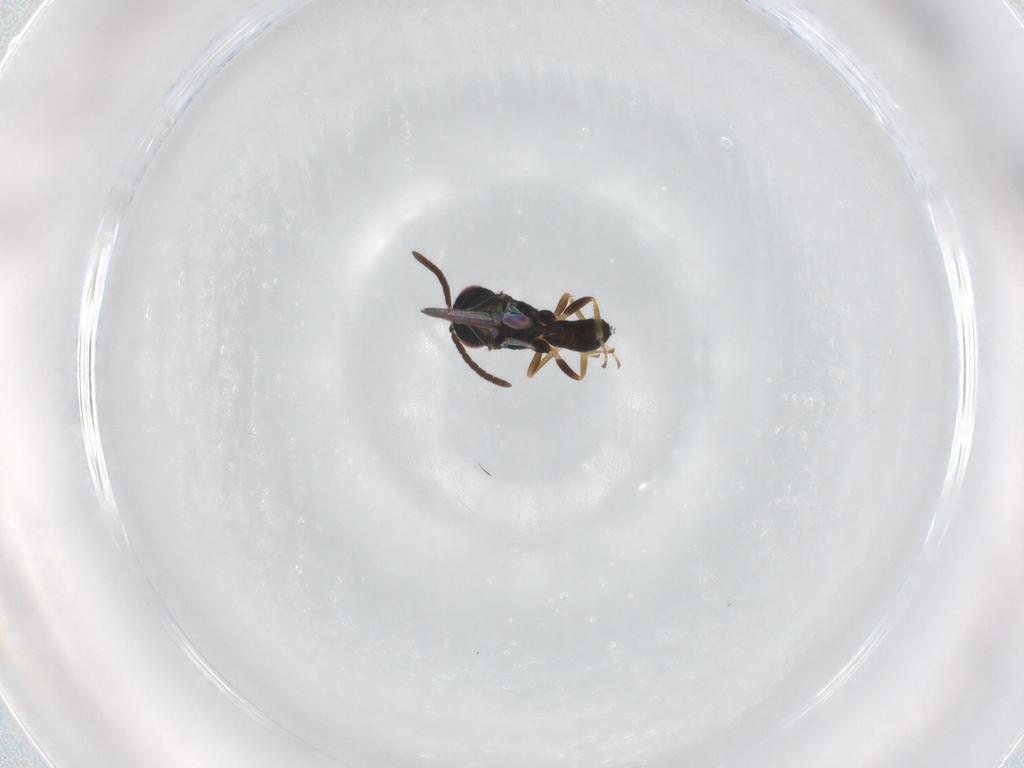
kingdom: Animalia
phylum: Arthropoda
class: Insecta
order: Hymenoptera
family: Pteromalidae
